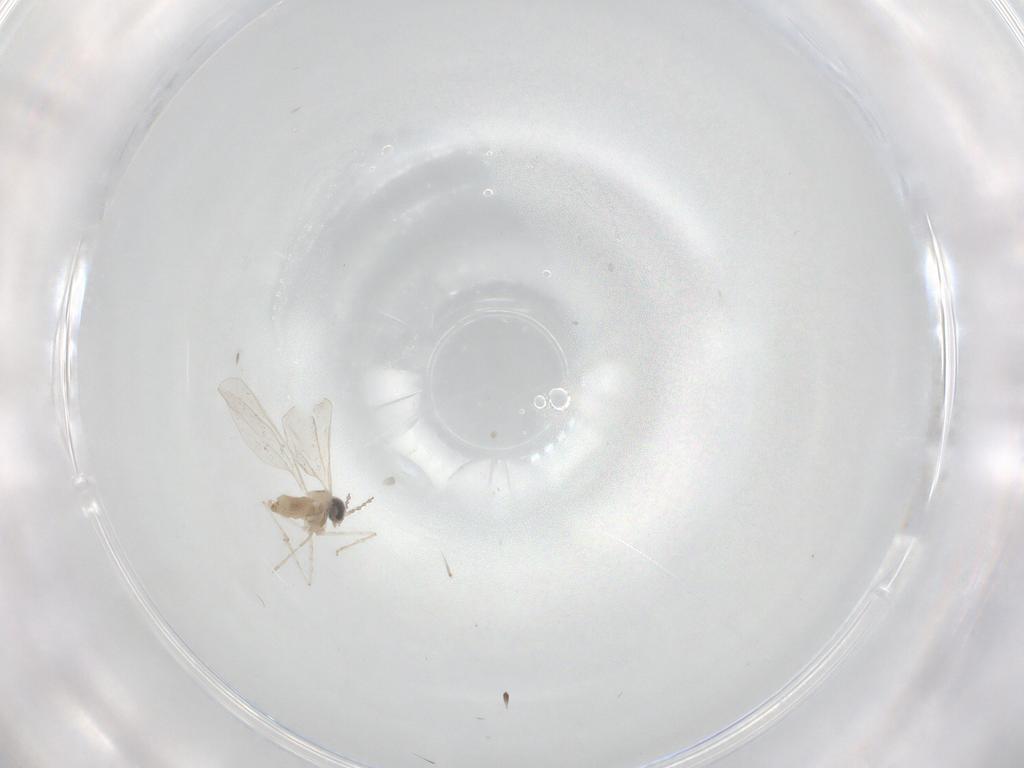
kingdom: Animalia
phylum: Arthropoda
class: Insecta
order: Diptera
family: Cecidomyiidae
